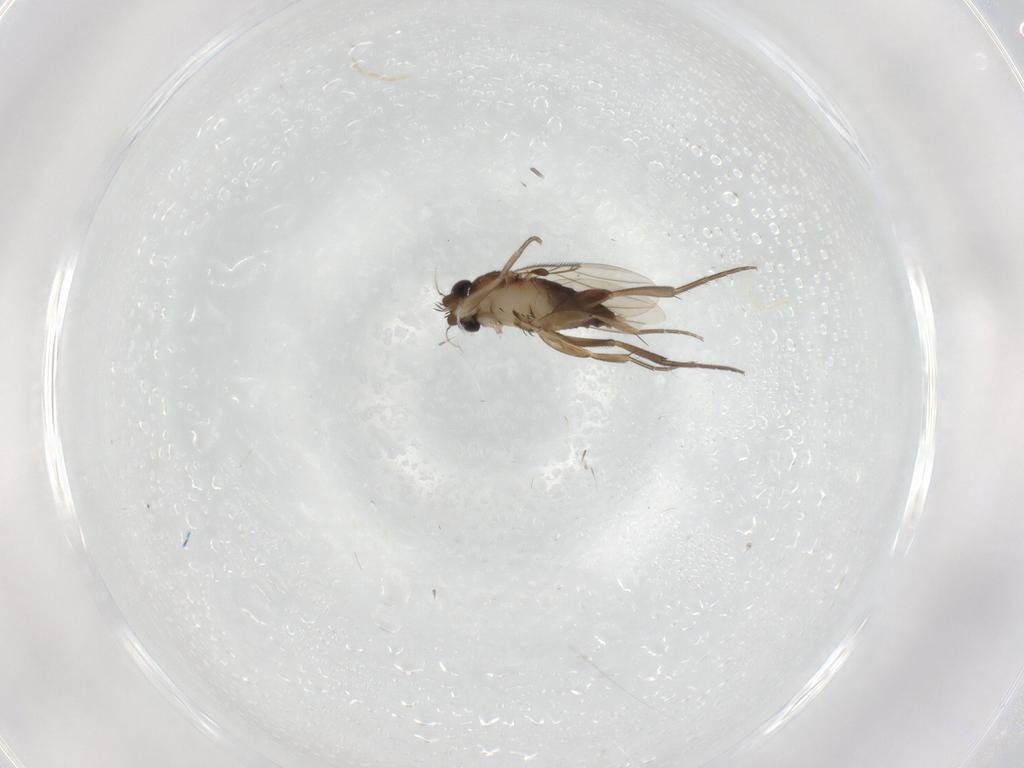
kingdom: Animalia
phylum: Arthropoda
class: Insecta
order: Diptera
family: Phoridae
